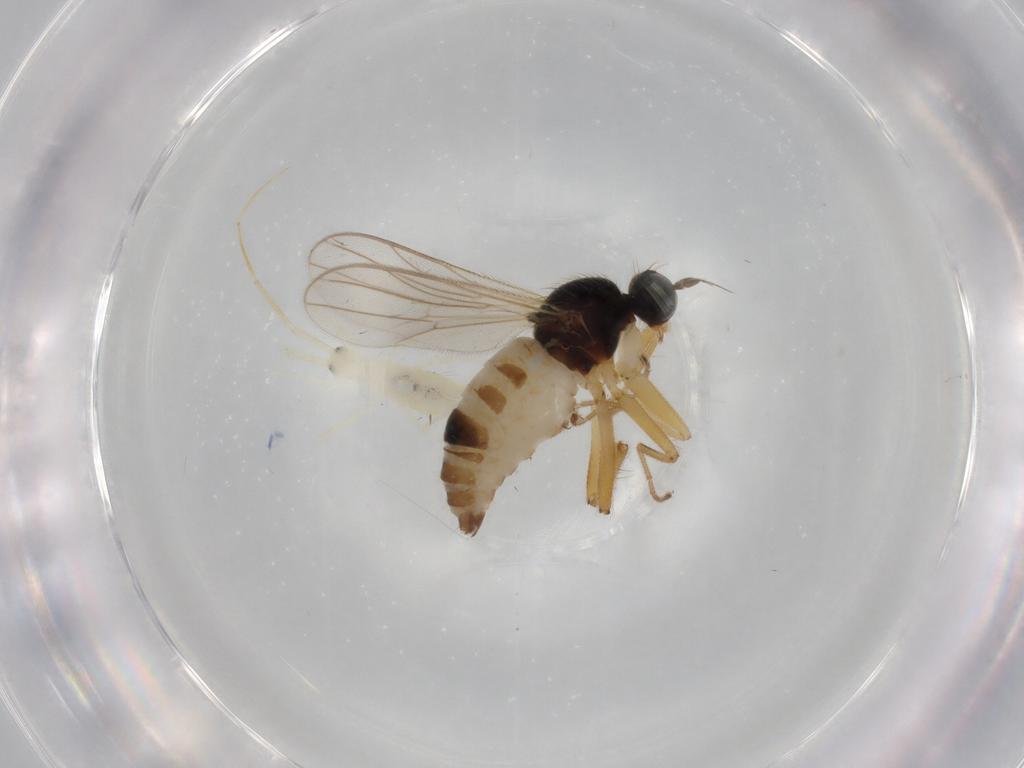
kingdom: Animalia
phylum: Arthropoda
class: Insecta
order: Diptera
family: Hybotidae
